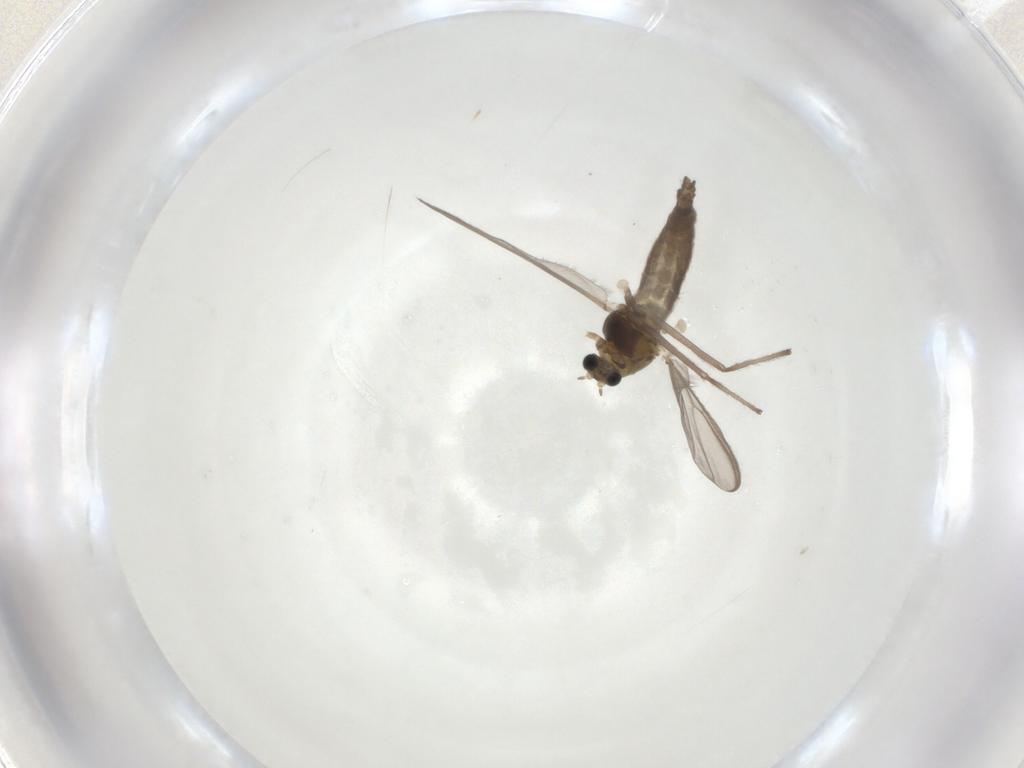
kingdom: Animalia
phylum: Arthropoda
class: Insecta
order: Diptera
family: Chironomidae
